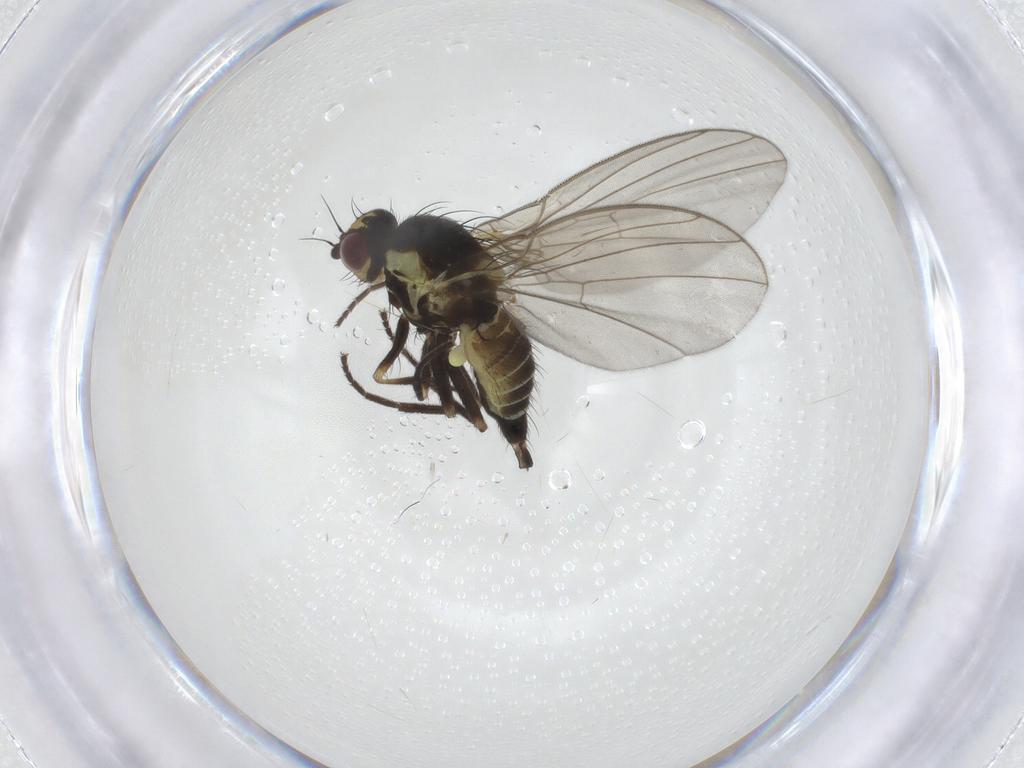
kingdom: Animalia
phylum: Arthropoda
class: Insecta
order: Diptera
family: Agromyzidae
